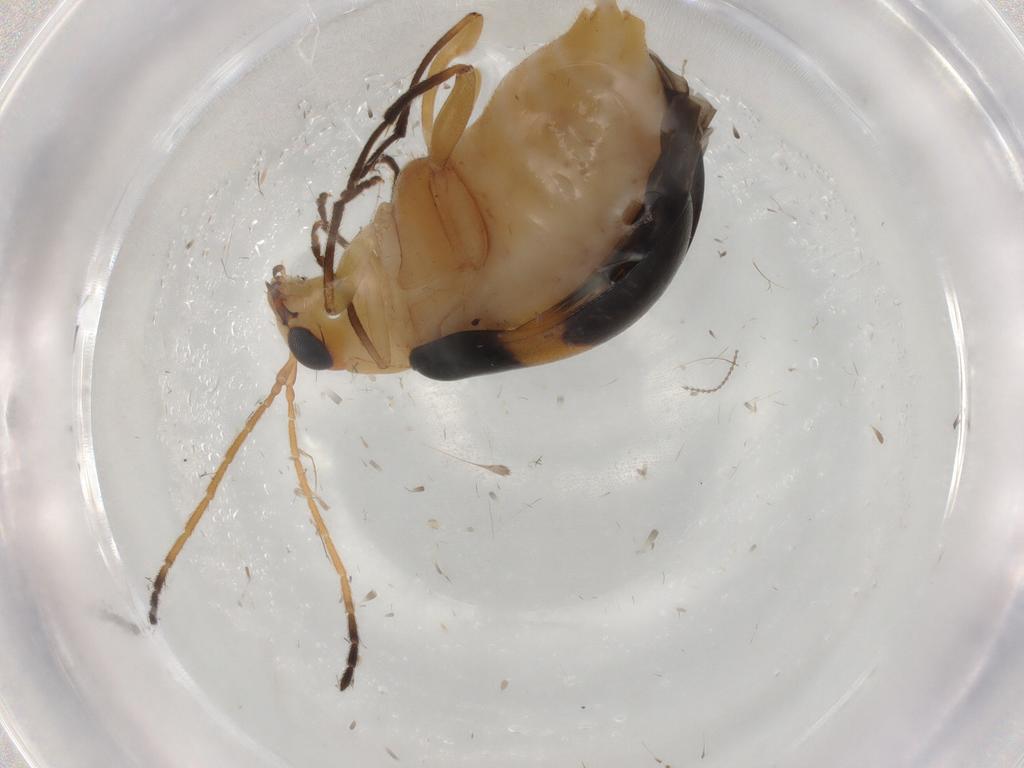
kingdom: Animalia
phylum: Arthropoda
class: Insecta
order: Coleoptera
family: Chrysomelidae
